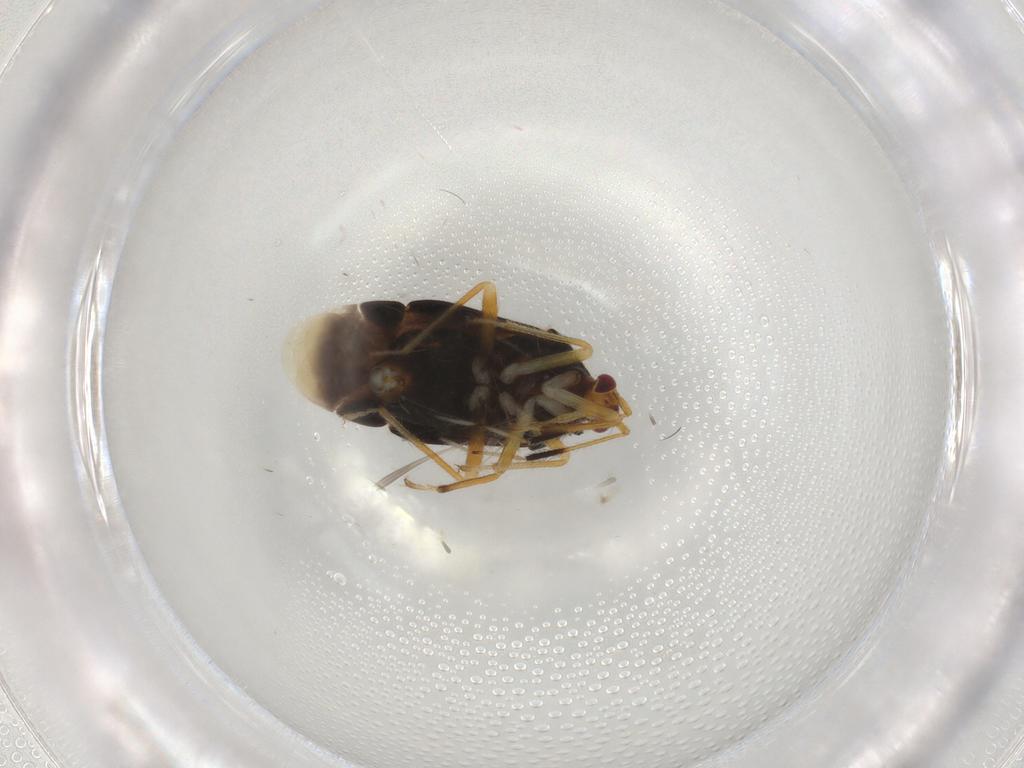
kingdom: Animalia
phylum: Arthropoda
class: Insecta
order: Hemiptera
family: Miridae
